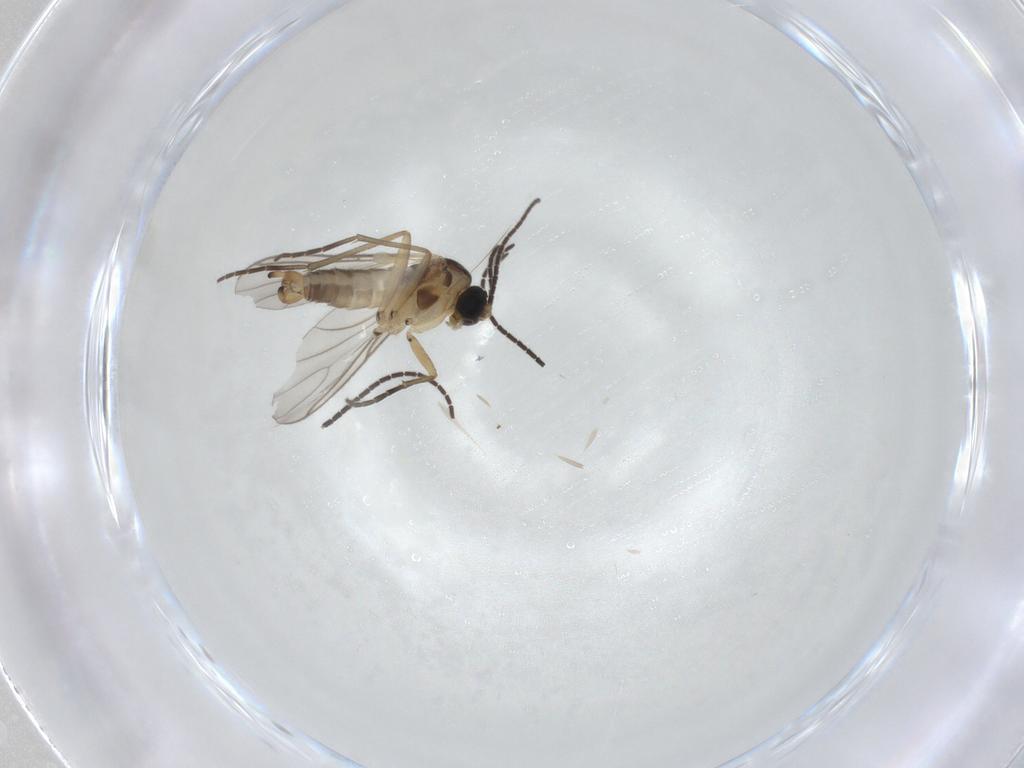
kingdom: Animalia
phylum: Arthropoda
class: Insecta
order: Diptera
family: Sciaridae
